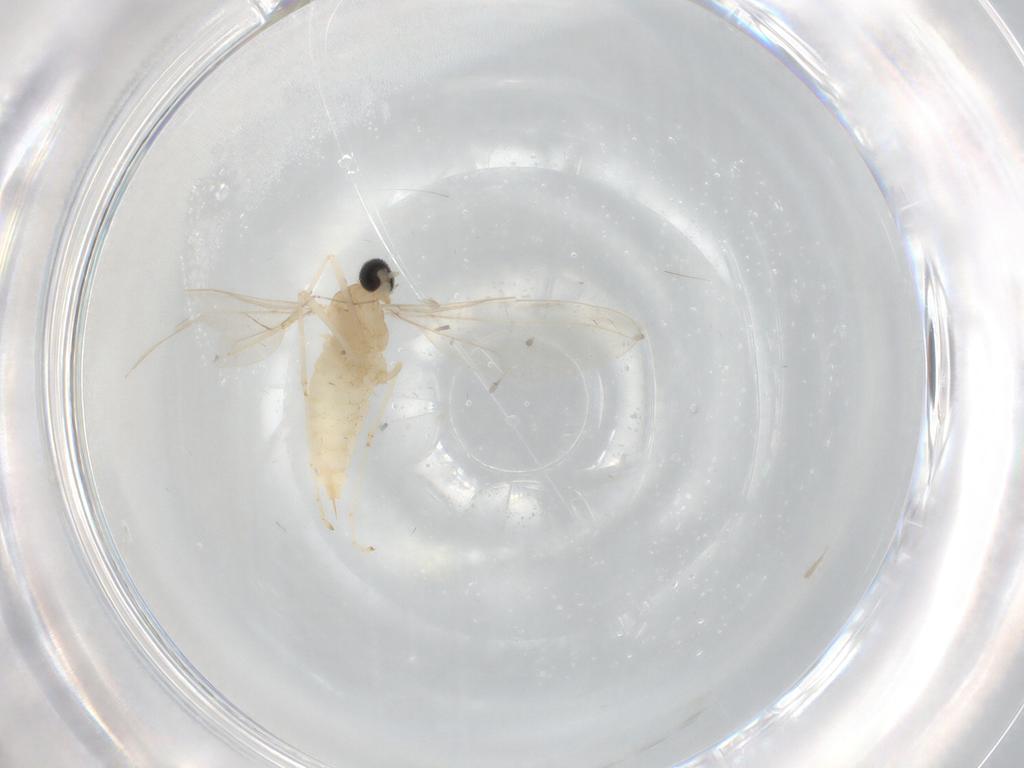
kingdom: Animalia
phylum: Arthropoda
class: Insecta
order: Diptera
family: Cecidomyiidae
